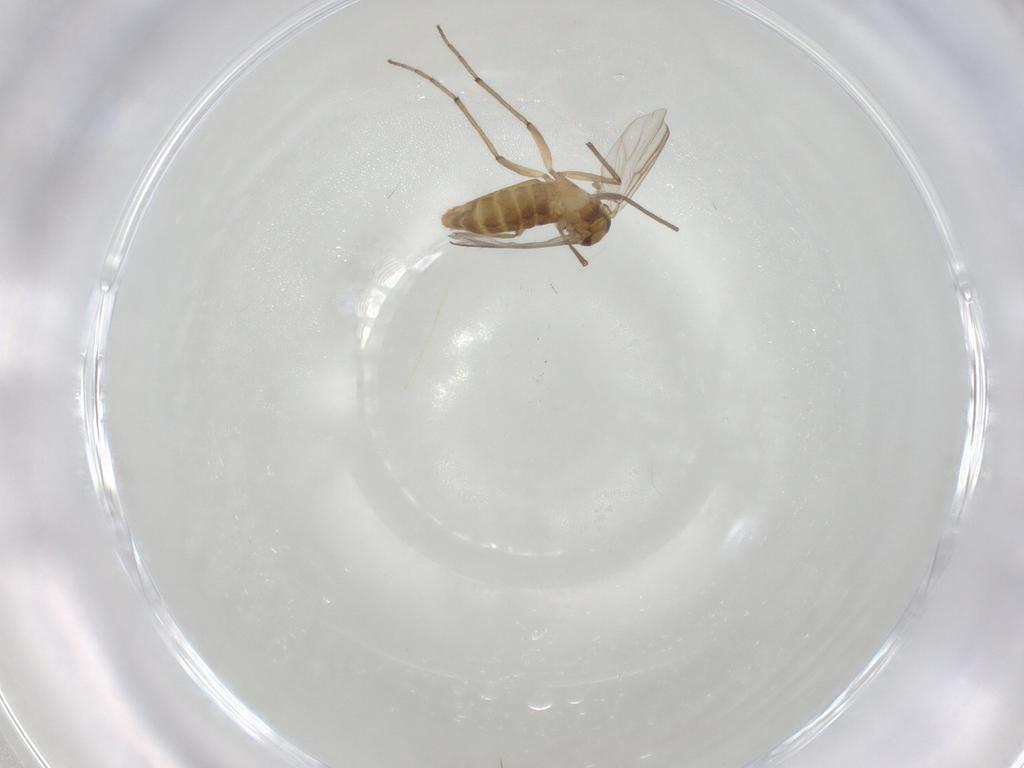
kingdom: Animalia
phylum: Arthropoda
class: Insecta
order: Diptera
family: Chironomidae
